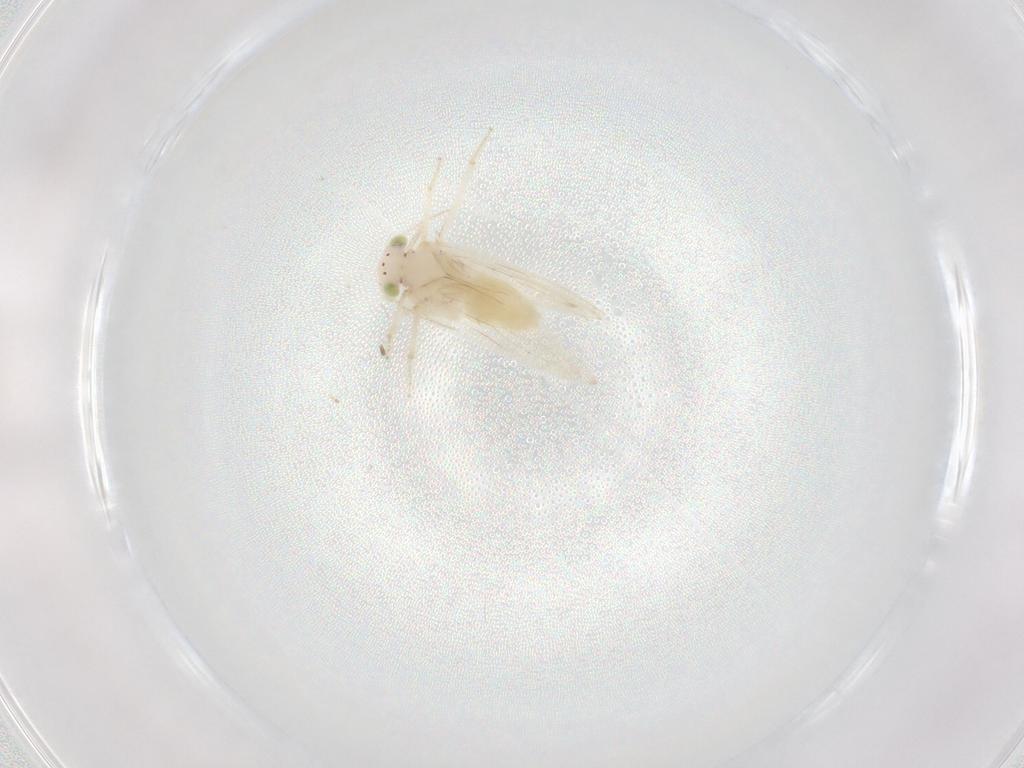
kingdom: Animalia
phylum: Arthropoda
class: Insecta
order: Psocodea
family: Lepidopsocidae
